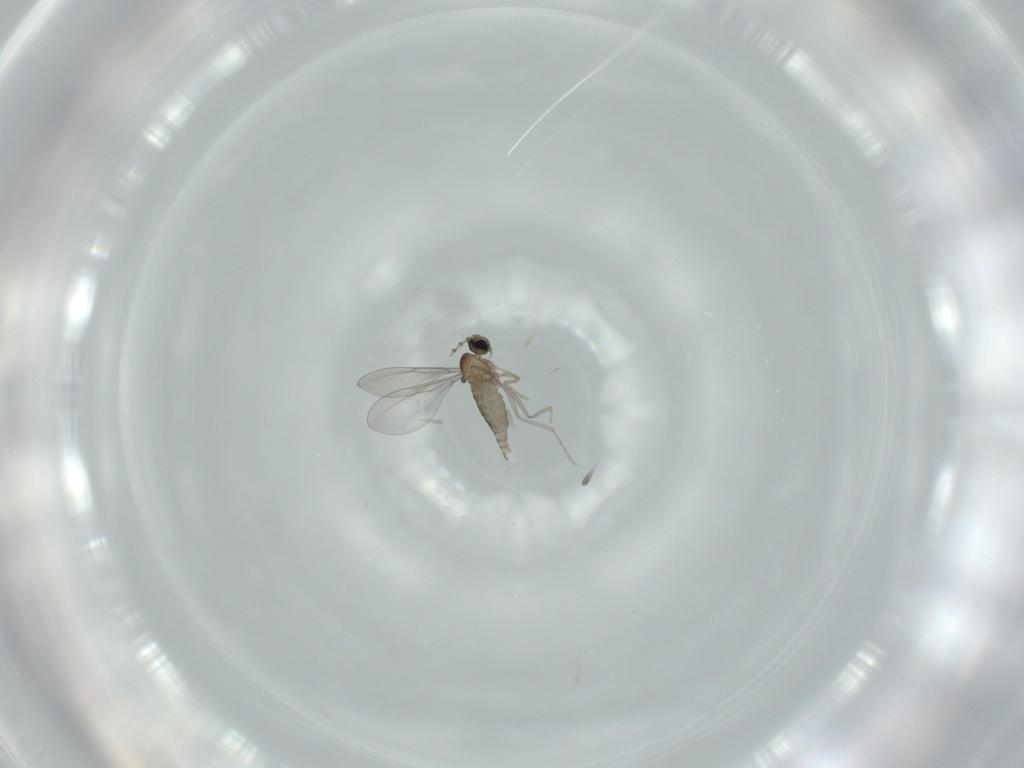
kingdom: Animalia
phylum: Arthropoda
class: Insecta
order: Diptera
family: Cecidomyiidae
